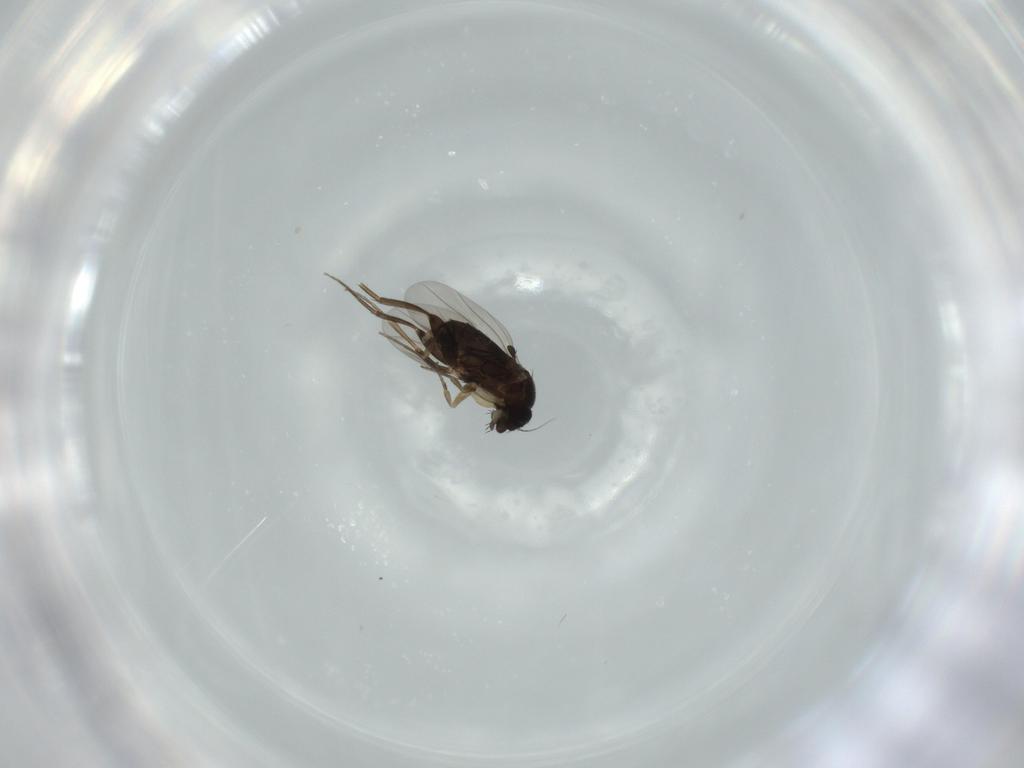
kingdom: Animalia
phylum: Arthropoda
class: Insecta
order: Diptera
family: Phoridae
